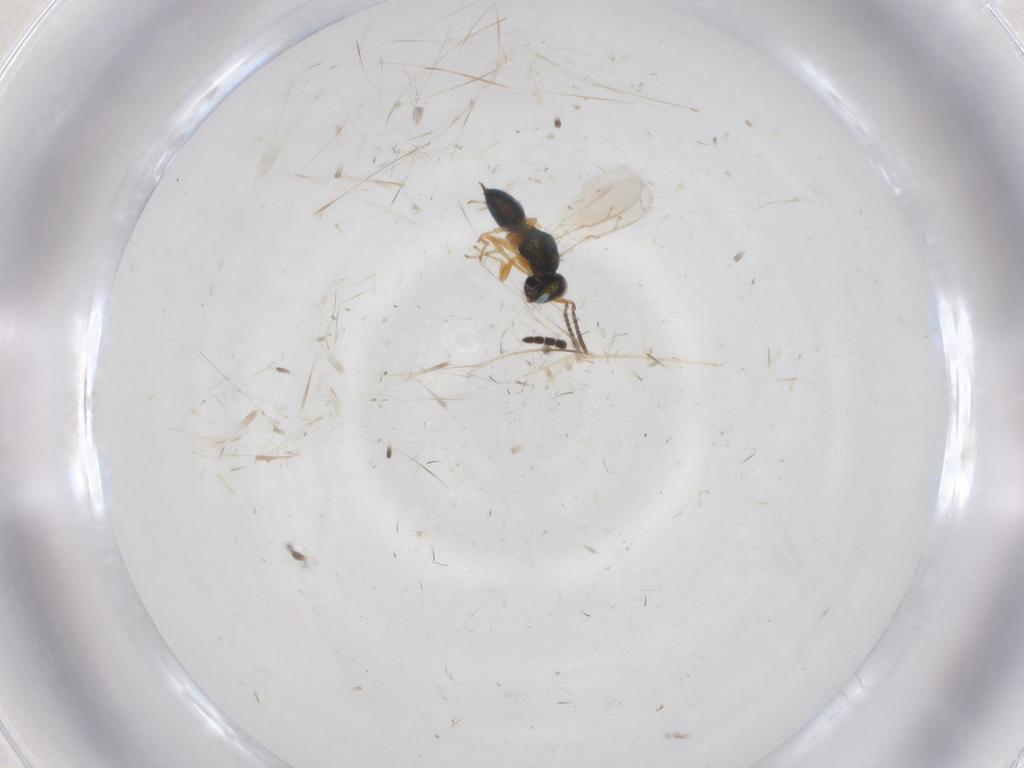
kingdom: Animalia
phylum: Arthropoda
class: Insecta
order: Hymenoptera
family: Ichneumonidae
